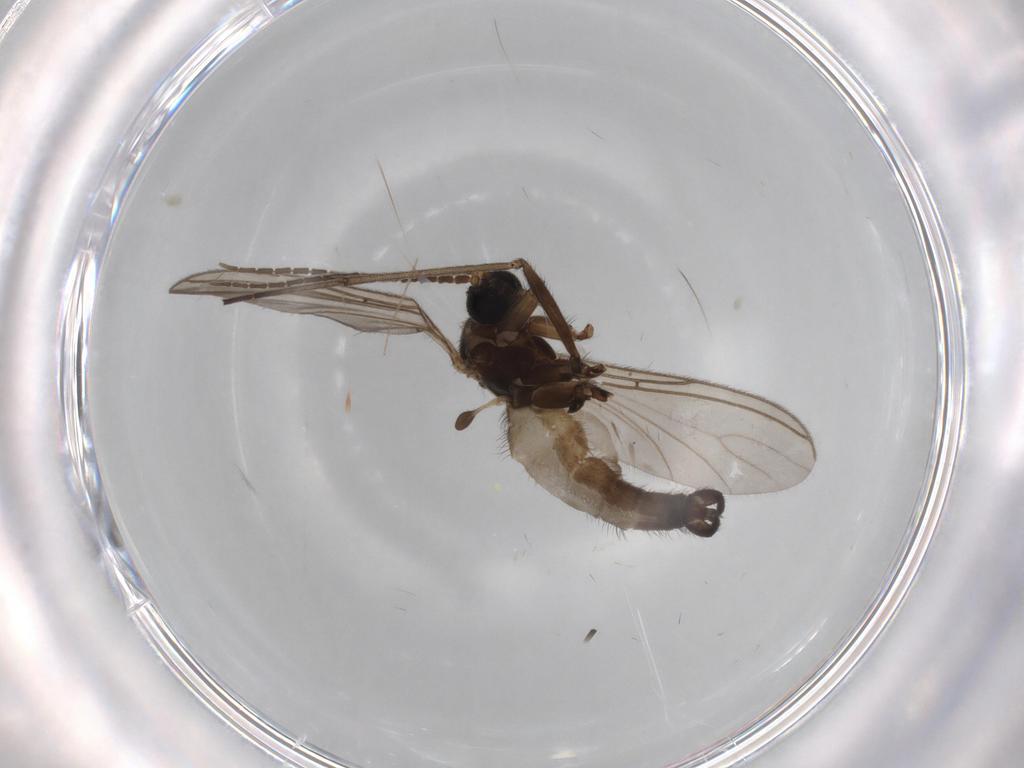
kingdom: Animalia
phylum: Arthropoda
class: Insecta
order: Diptera
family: Sciaridae
